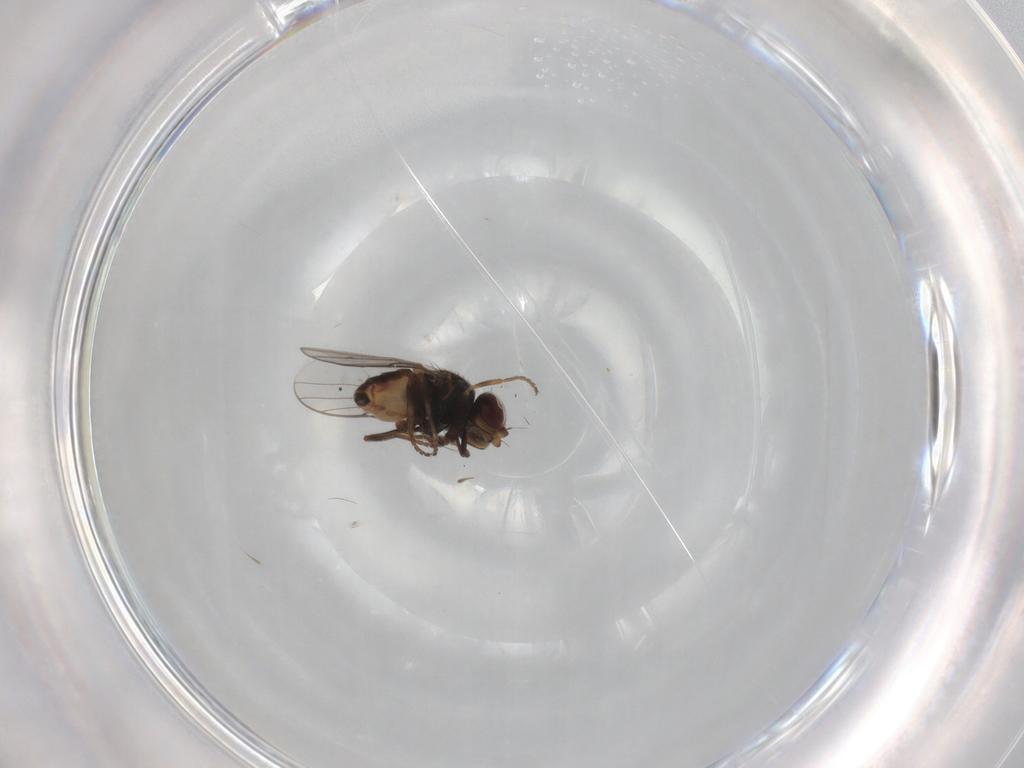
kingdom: Animalia
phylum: Arthropoda
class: Insecta
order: Diptera
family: Chloropidae
